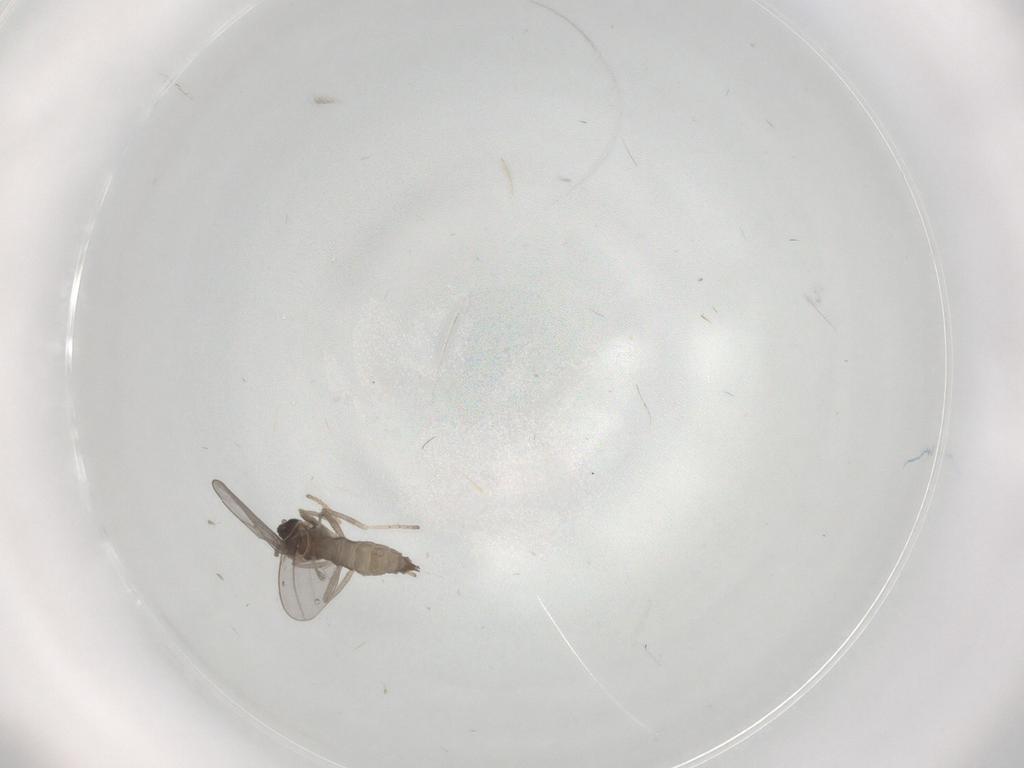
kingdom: Animalia
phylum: Arthropoda
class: Insecta
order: Diptera
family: Cecidomyiidae
